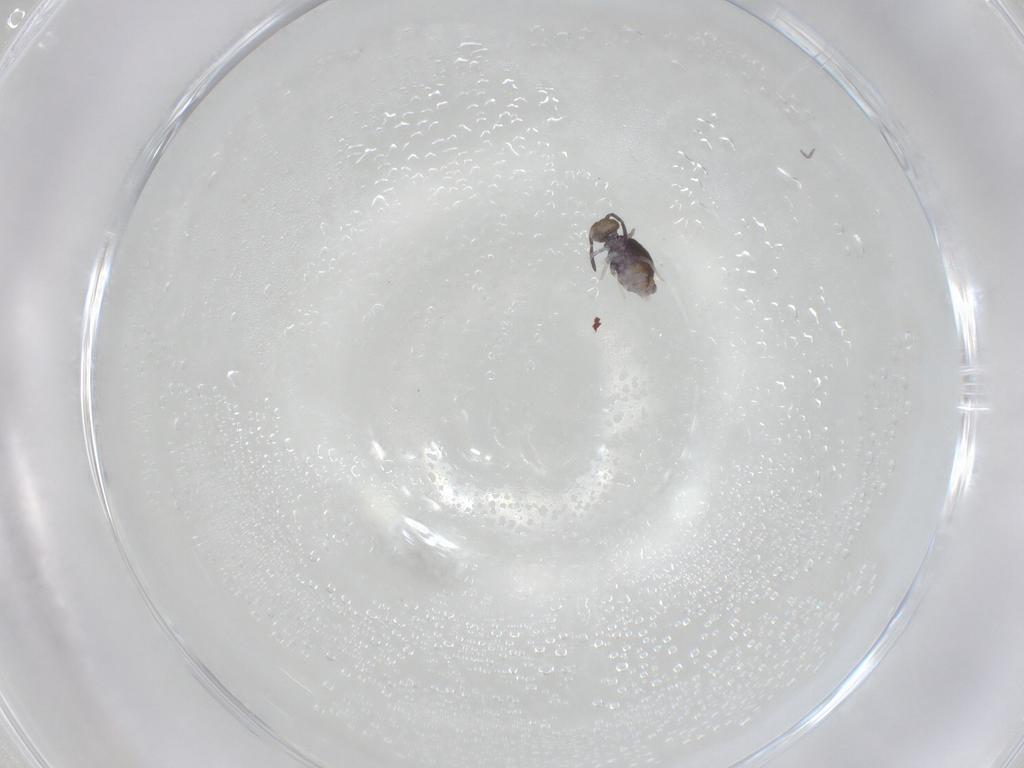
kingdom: Animalia
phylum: Arthropoda
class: Collembola
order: Symphypleona
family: Katiannidae
